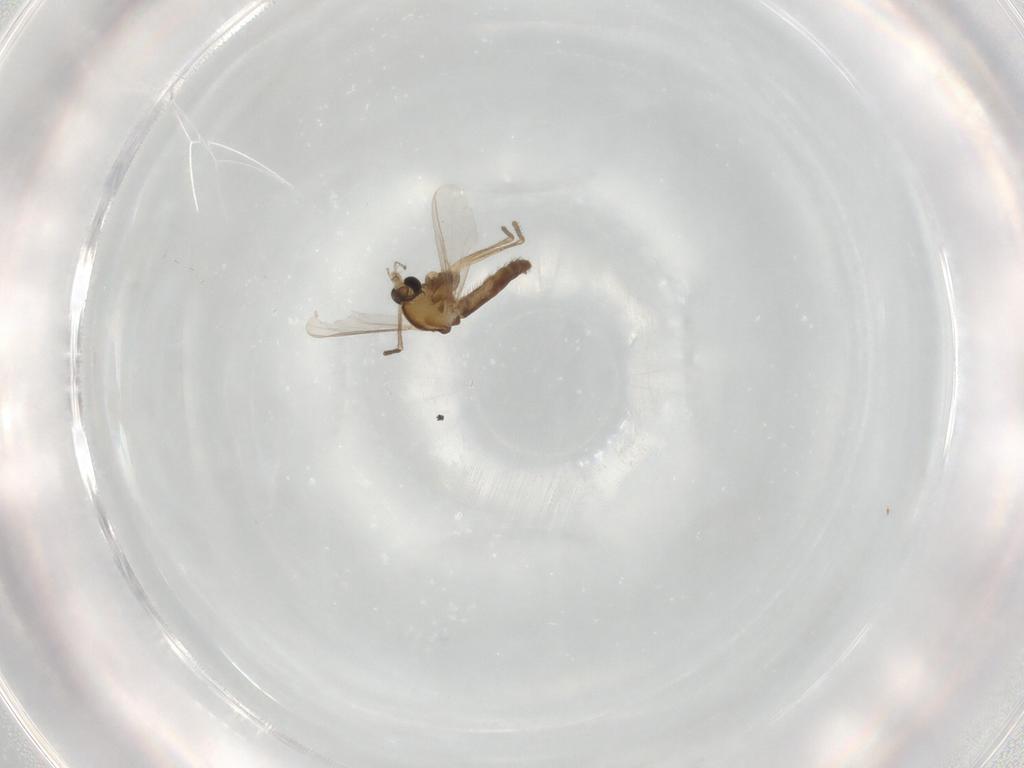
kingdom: Animalia
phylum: Arthropoda
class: Insecta
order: Diptera
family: Chironomidae
